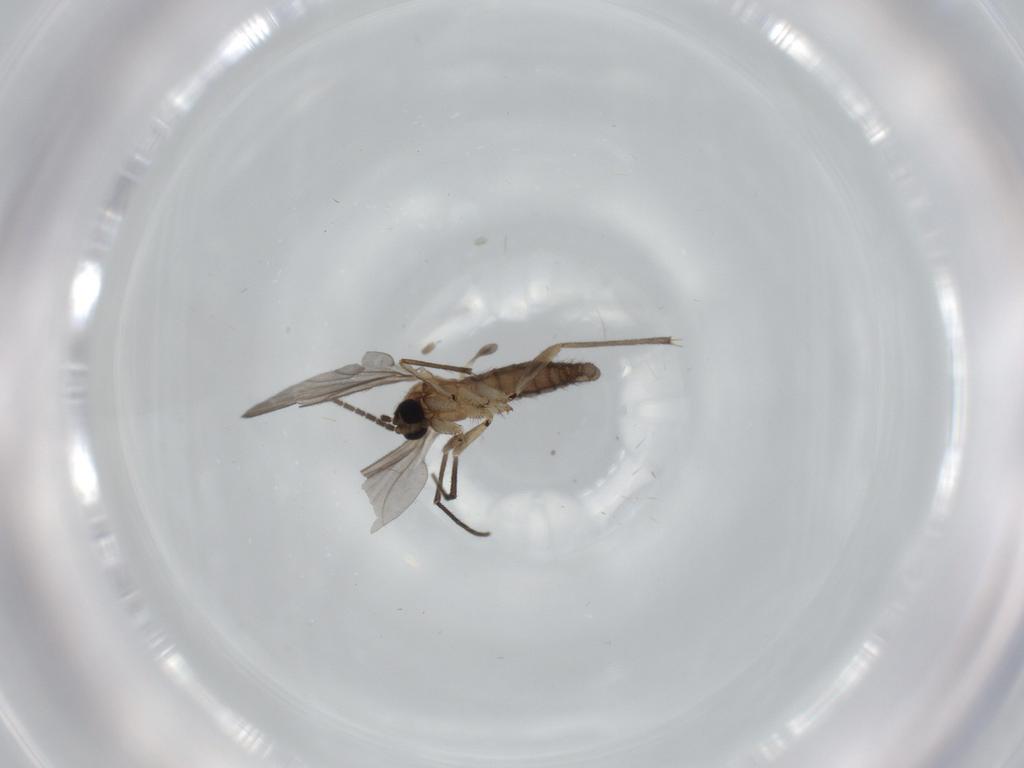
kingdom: Animalia
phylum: Arthropoda
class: Insecta
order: Diptera
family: Sciaridae
